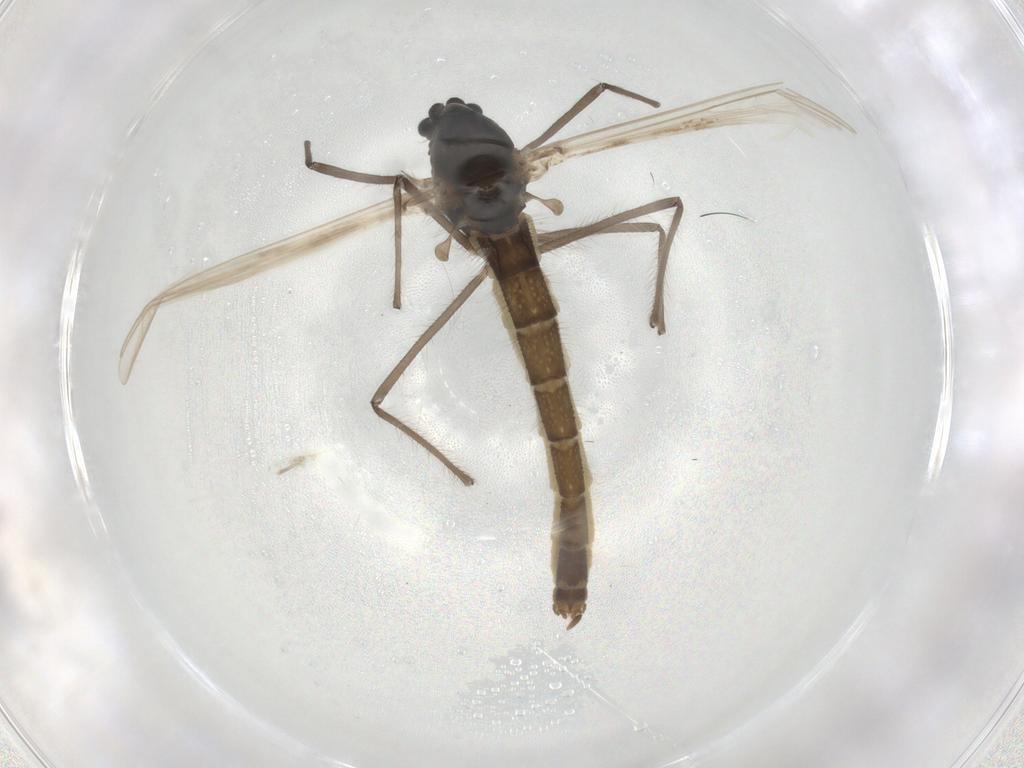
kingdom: Animalia
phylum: Arthropoda
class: Insecta
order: Diptera
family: Chironomidae
